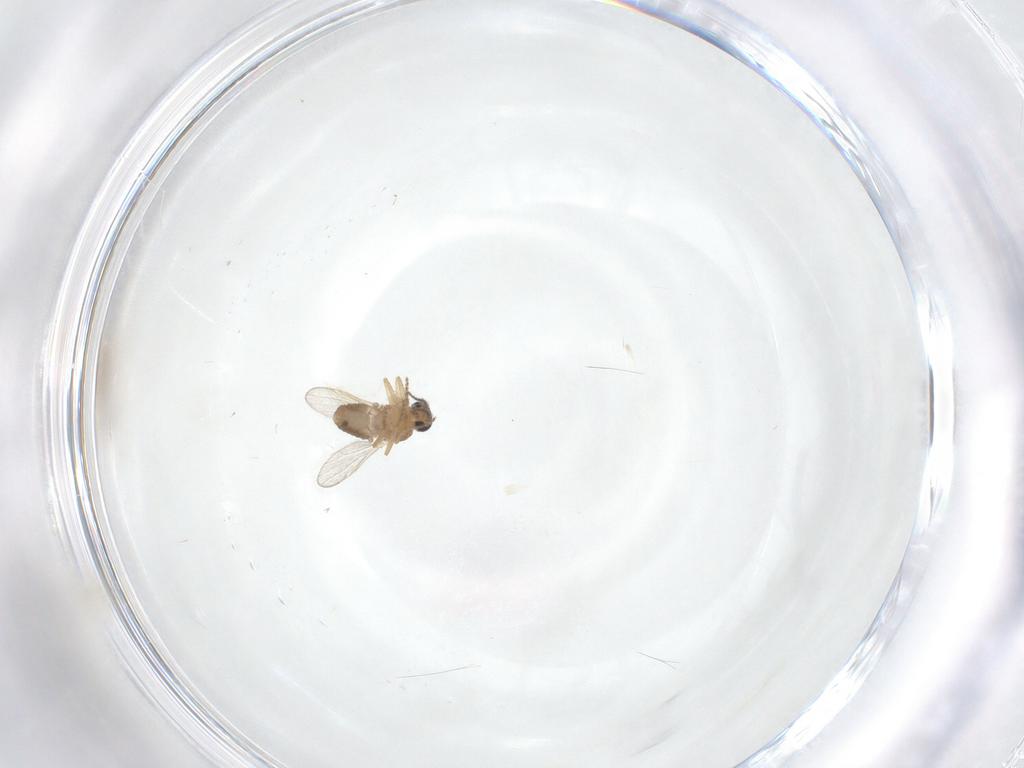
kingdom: Animalia
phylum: Arthropoda
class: Insecta
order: Diptera
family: Ceratopogonidae
